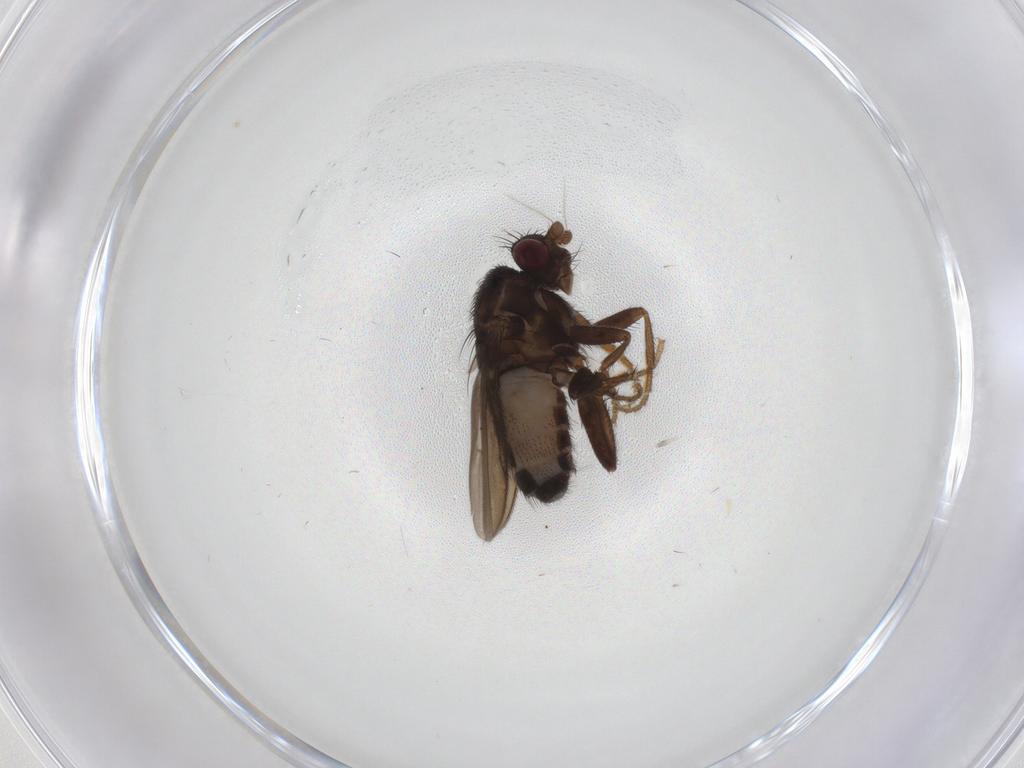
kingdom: Animalia
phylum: Arthropoda
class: Insecta
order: Diptera
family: Sphaeroceridae
